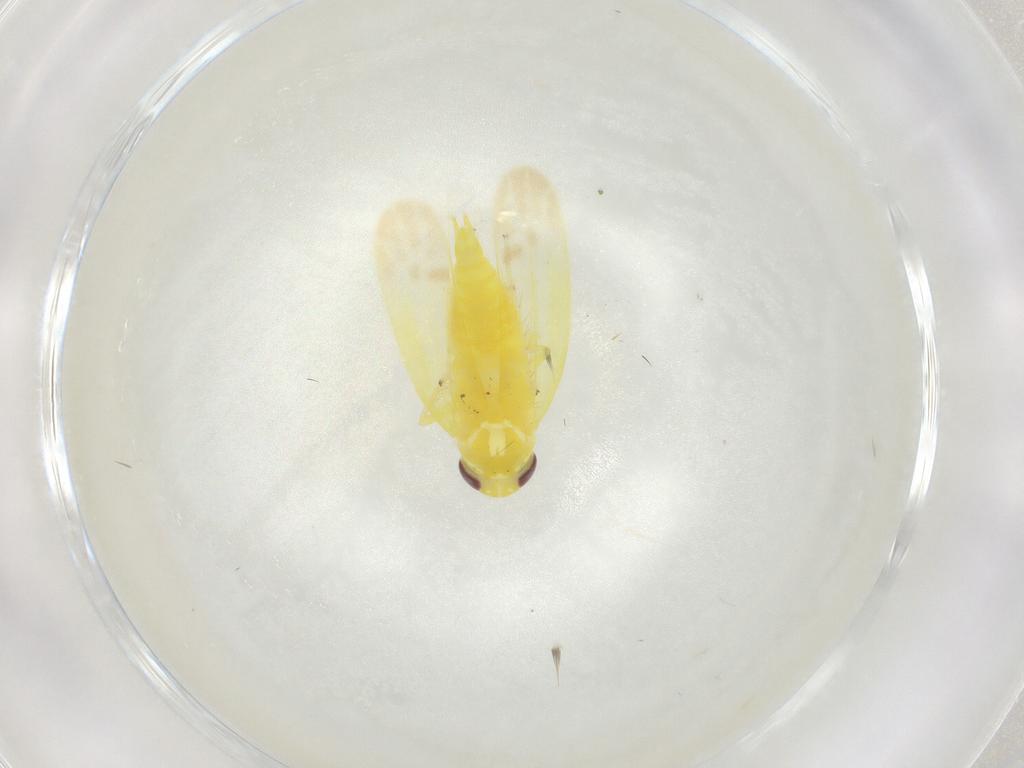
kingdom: Animalia
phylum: Arthropoda
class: Insecta
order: Hemiptera
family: Cicadellidae
